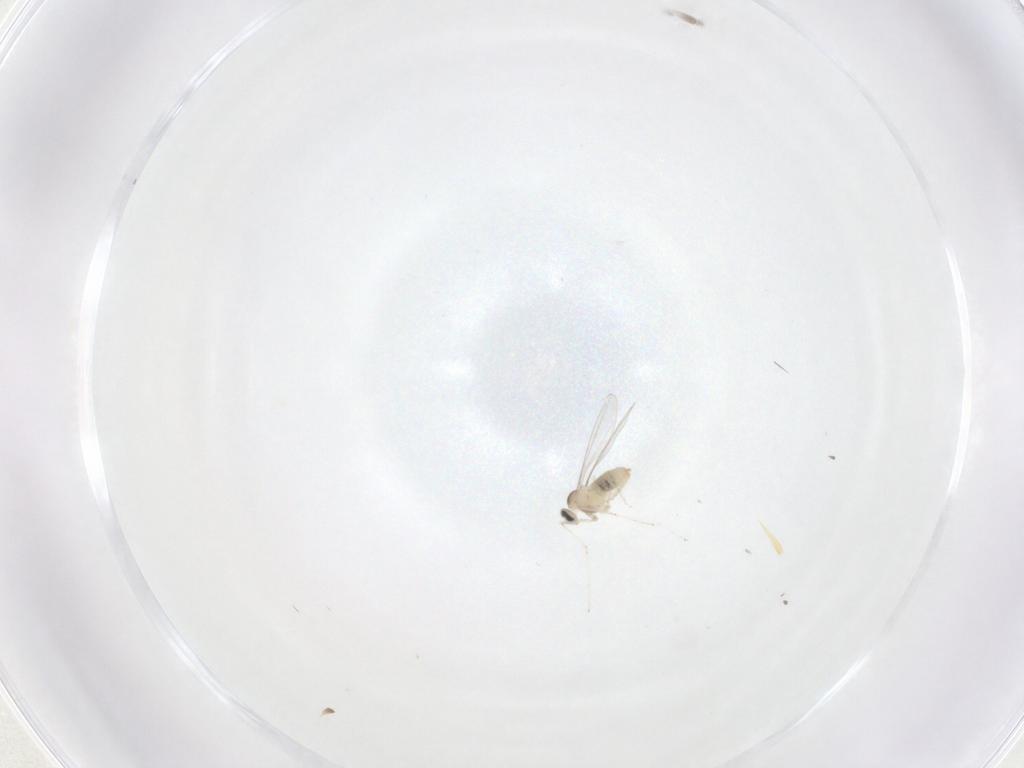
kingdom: Animalia
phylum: Arthropoda
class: Insecta
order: Diptera
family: Cecidomyiidae
